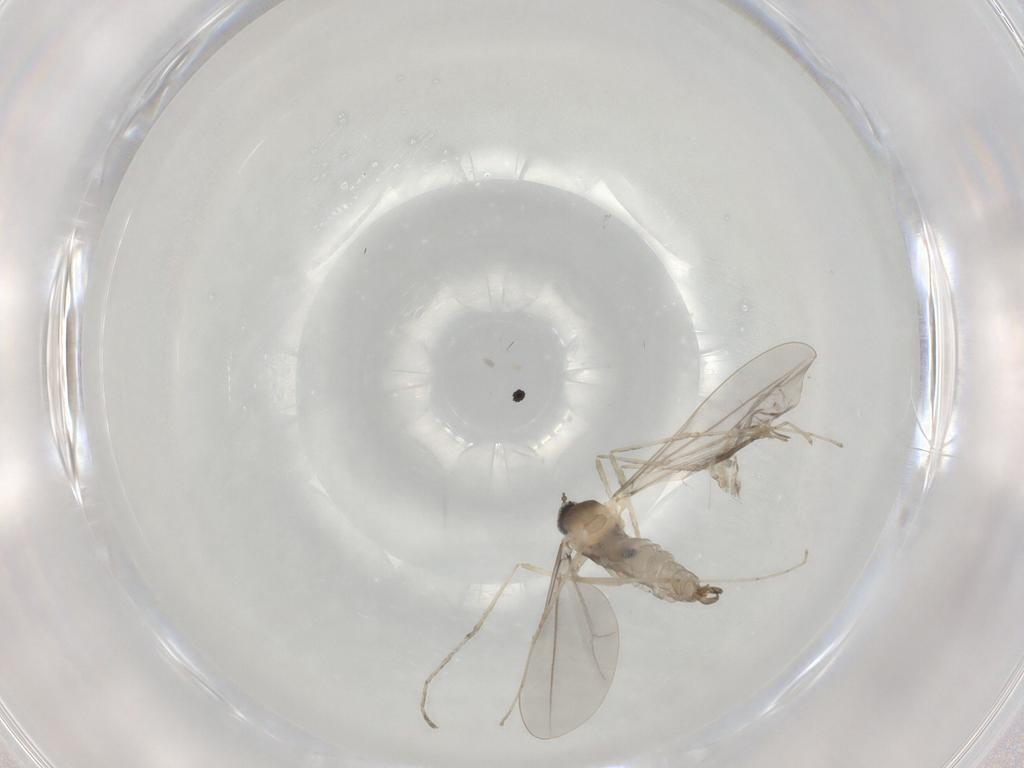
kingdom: Animalia
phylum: Arthropoda
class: Insecta
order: Diptera
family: Cecidomyiidae
